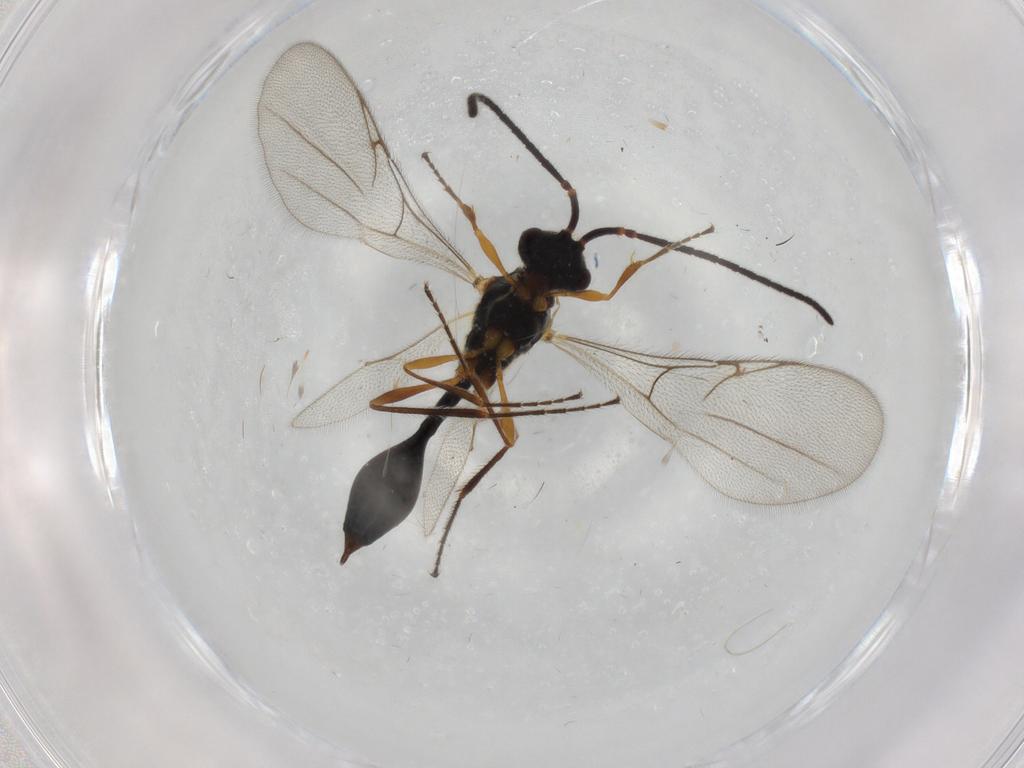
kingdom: Animalia
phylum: Arthropoda
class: Insecta
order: Hymenoptera
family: Diapriidae
